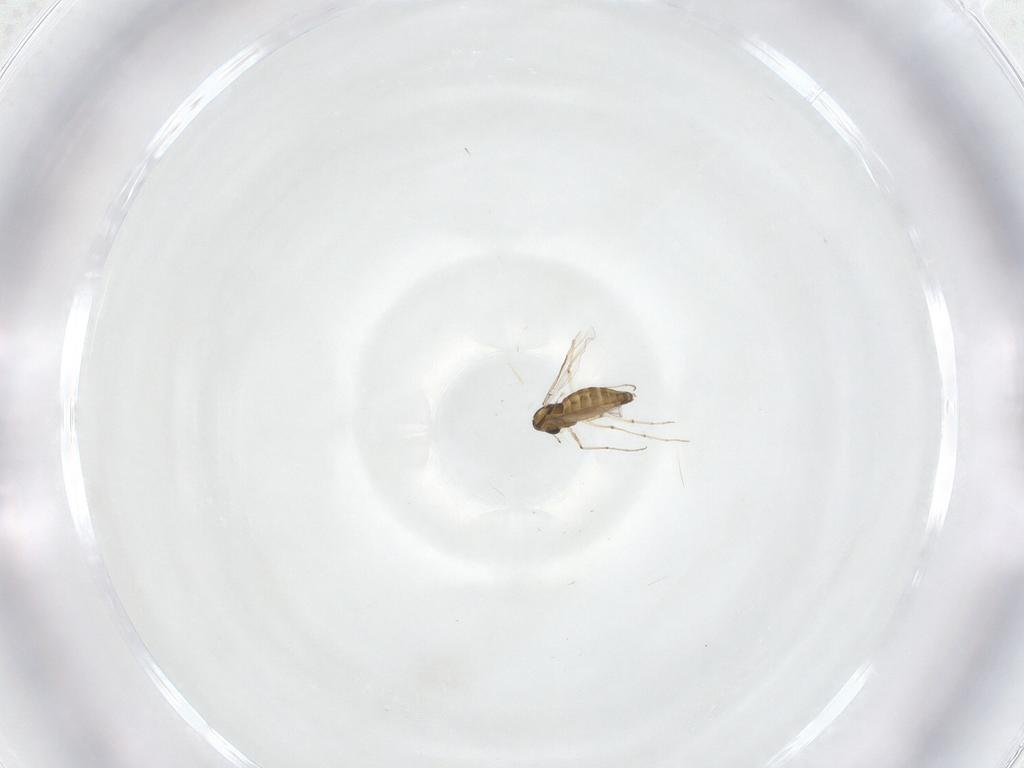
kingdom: Animalia
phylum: Arthropoda
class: Insecta
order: Diptera
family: Chironomidae
